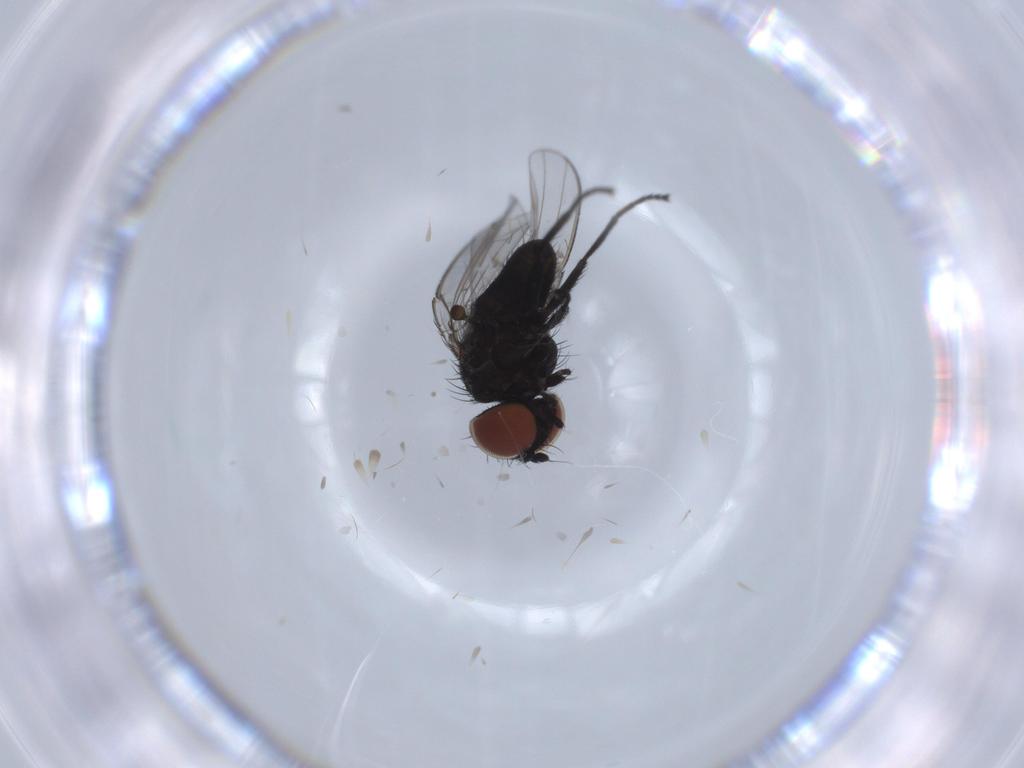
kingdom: Animalia
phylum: Arthropoda
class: Insecta
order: Diptera
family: Milichiidae
